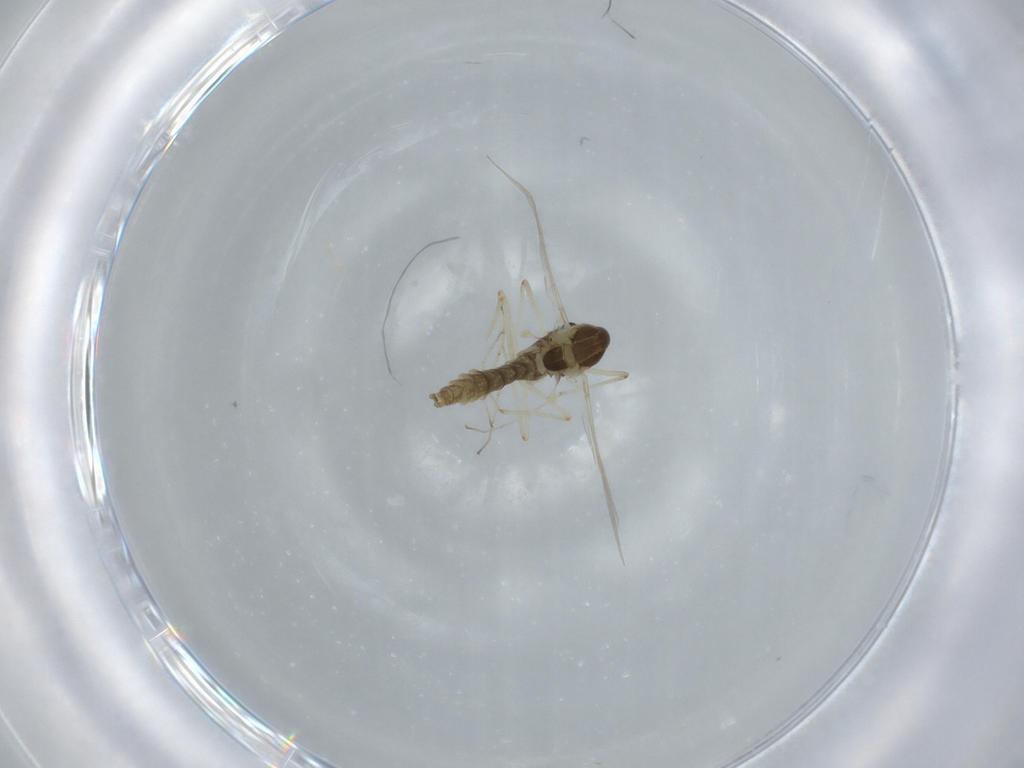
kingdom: Animalia
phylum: Arthropoda
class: Insecta
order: Diptera
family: Chironomidae
